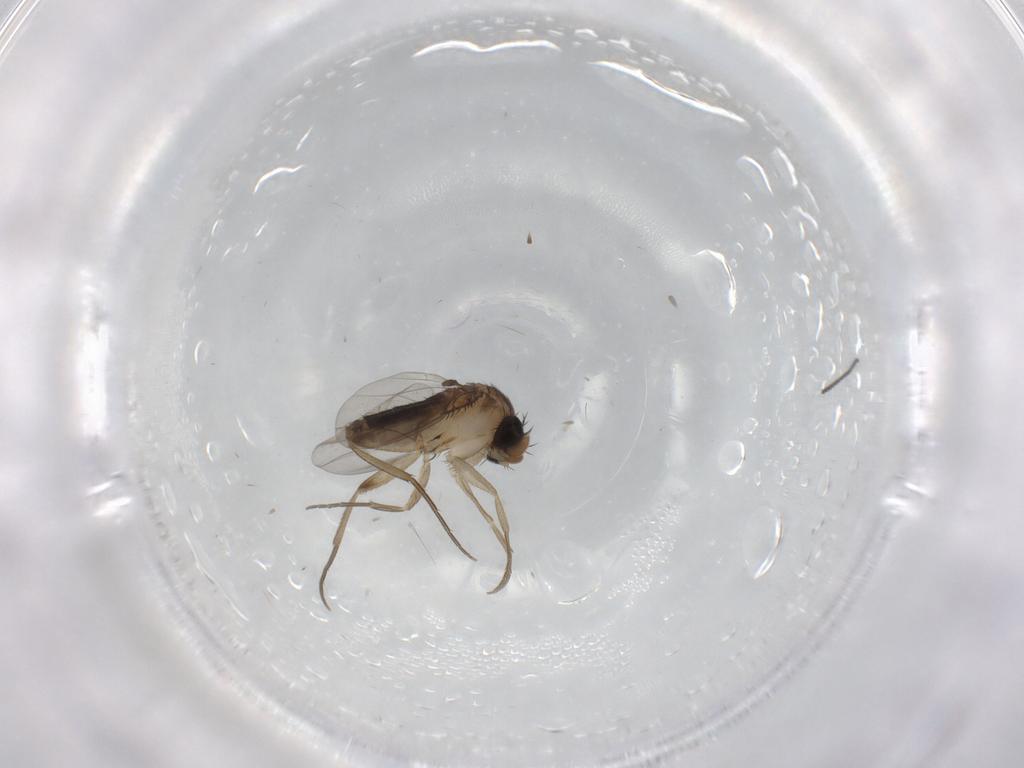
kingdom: Animalia
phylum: Arthropoda
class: Insecta
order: Diptera
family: Phoridae
